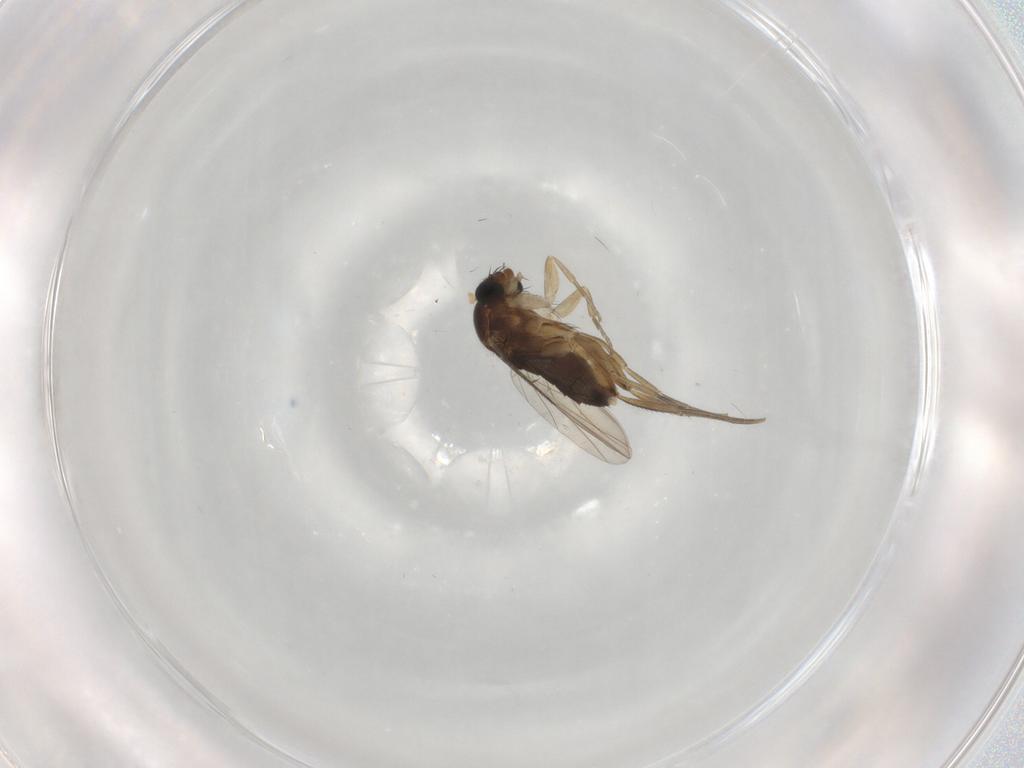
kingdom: Animalia
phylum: Arthropoda
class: Insecta
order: Diptera
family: Phoridae
